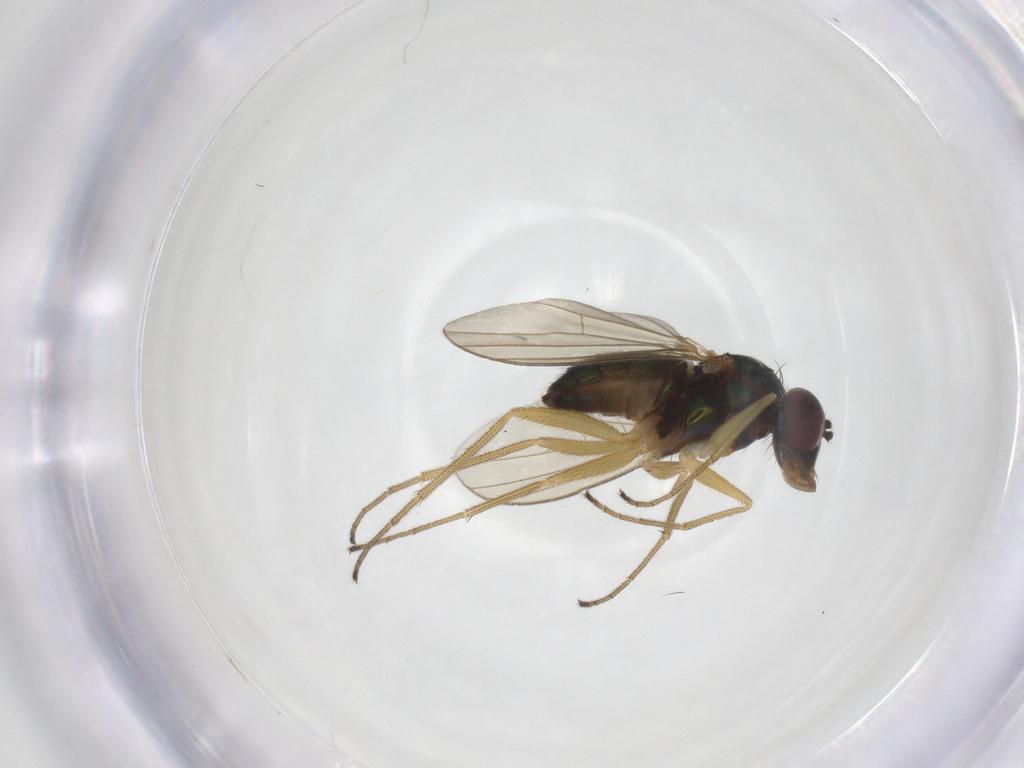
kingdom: Animalia
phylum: Arthropoda
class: Insecta
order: Diptera
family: Dolichopodidae
